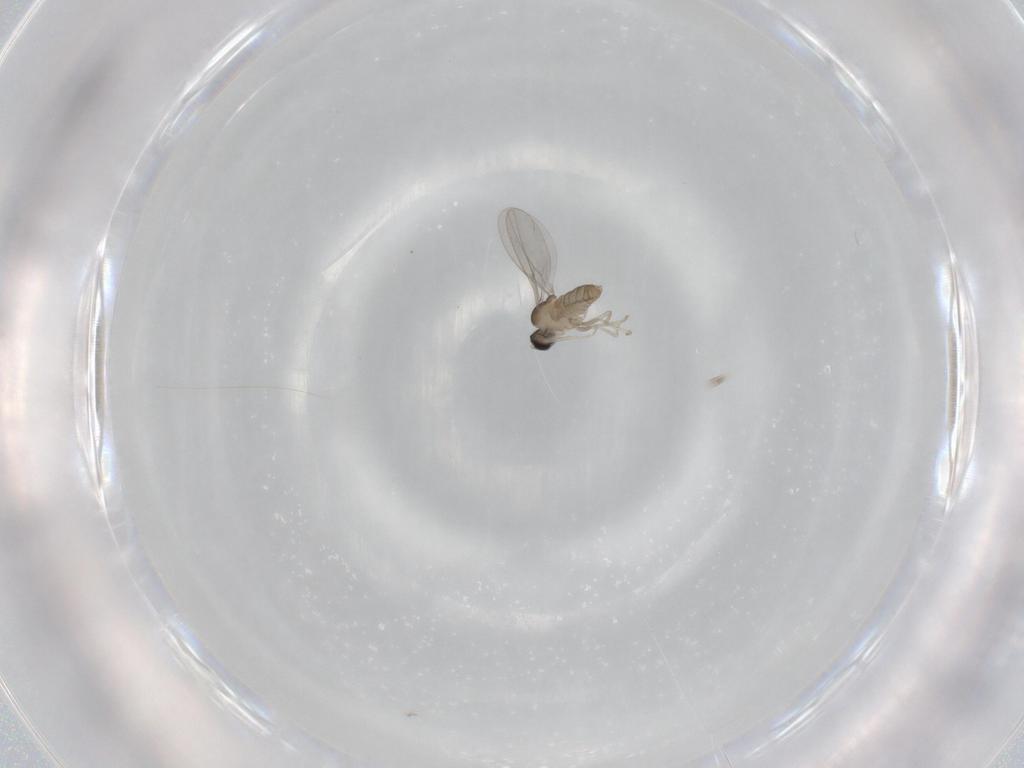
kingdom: Animalia
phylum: Arthropoda
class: Insecta
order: Diptera
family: Cecidomyiidae
